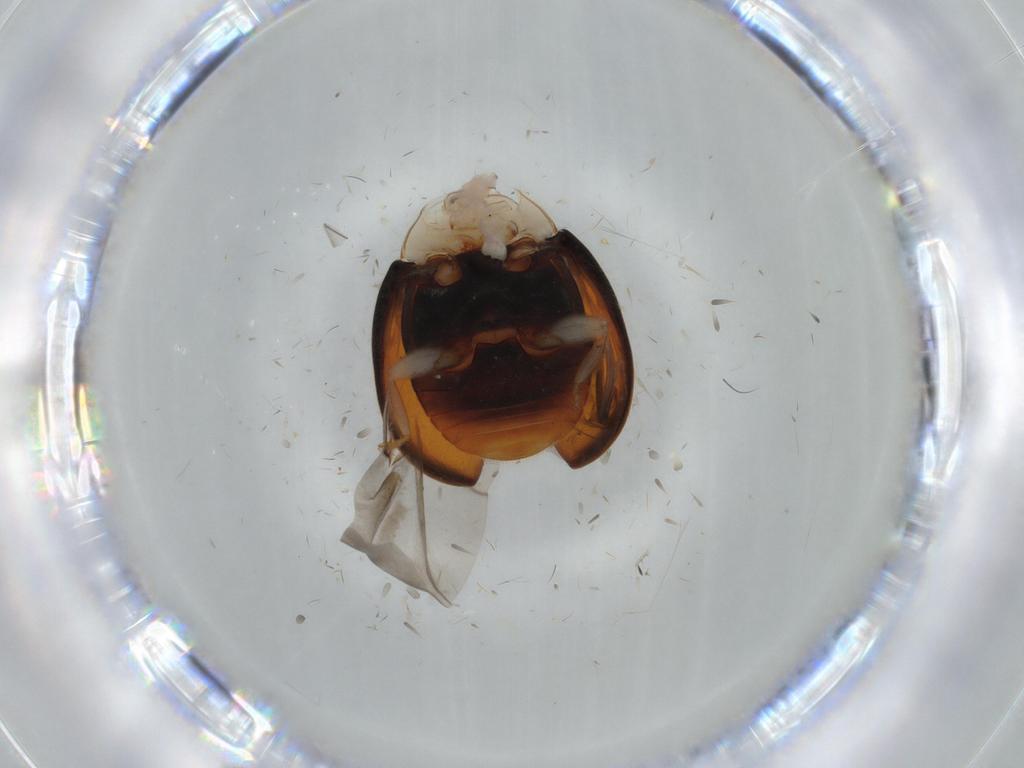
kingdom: Animalia
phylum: Arthropoda
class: Insecta
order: Coleoptera
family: Coccinellidae
